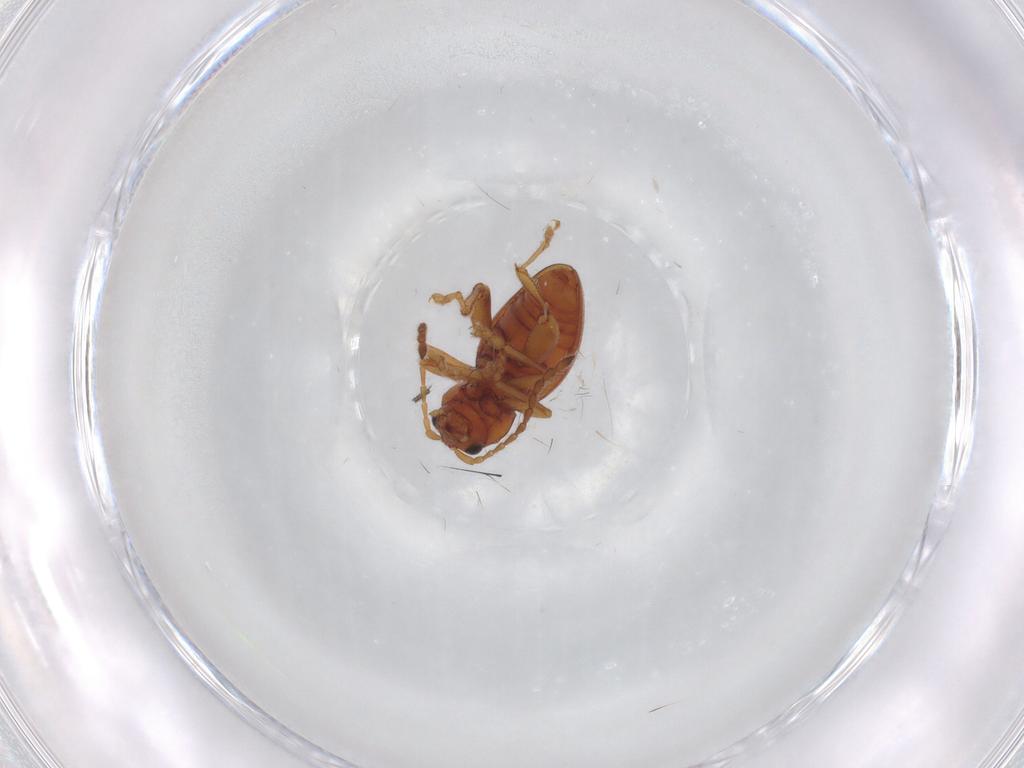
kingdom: Animalia
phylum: Arthropoda
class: Insecta
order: Coleoptera
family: Chrysomelidae
